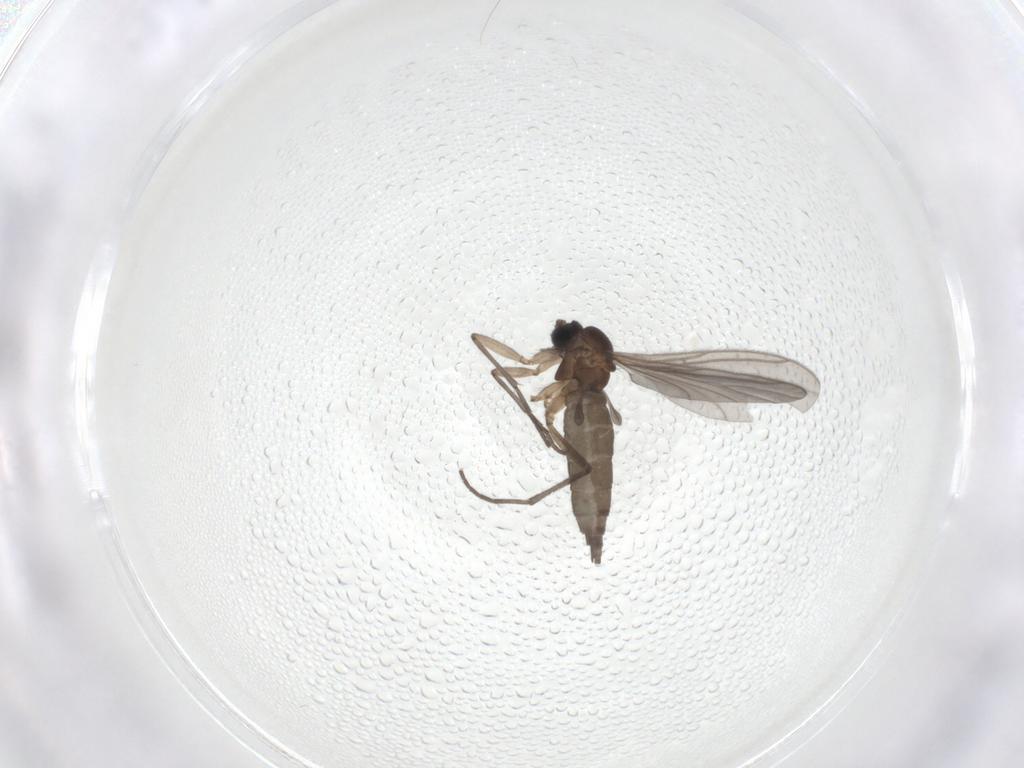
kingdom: Animalia
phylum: Arthropoda
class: Insecta
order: Diptera
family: Sciaridae
